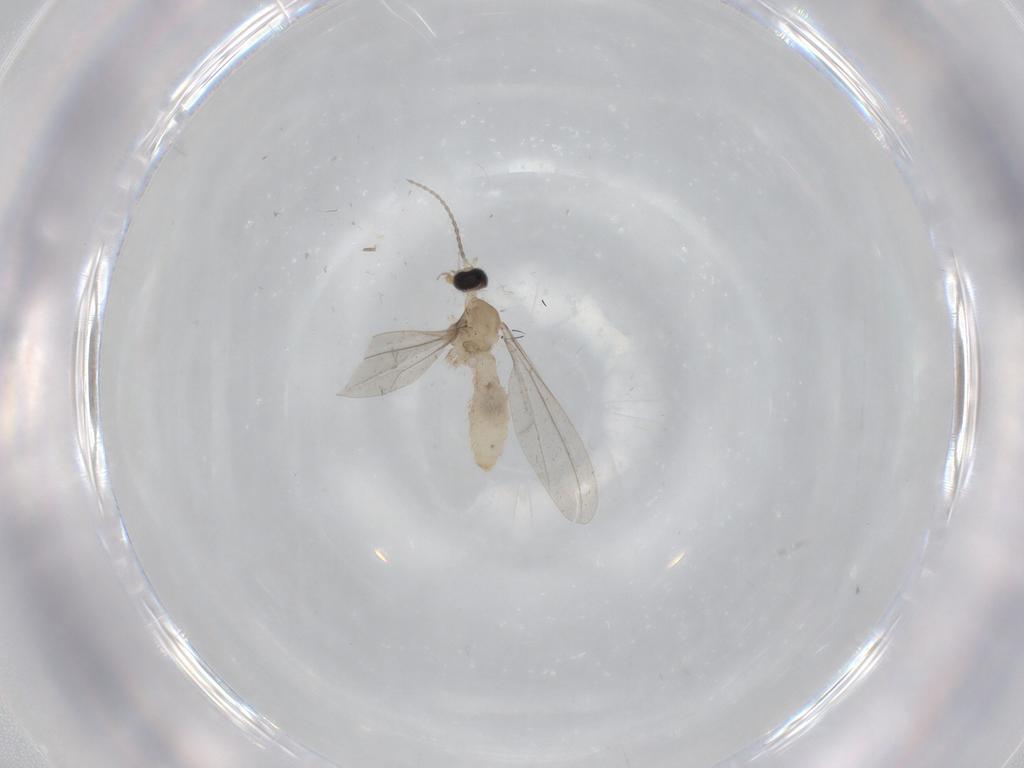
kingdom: Animalia
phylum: Arthropoda
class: Insecta
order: Diptera
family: Cecidomyiidae
